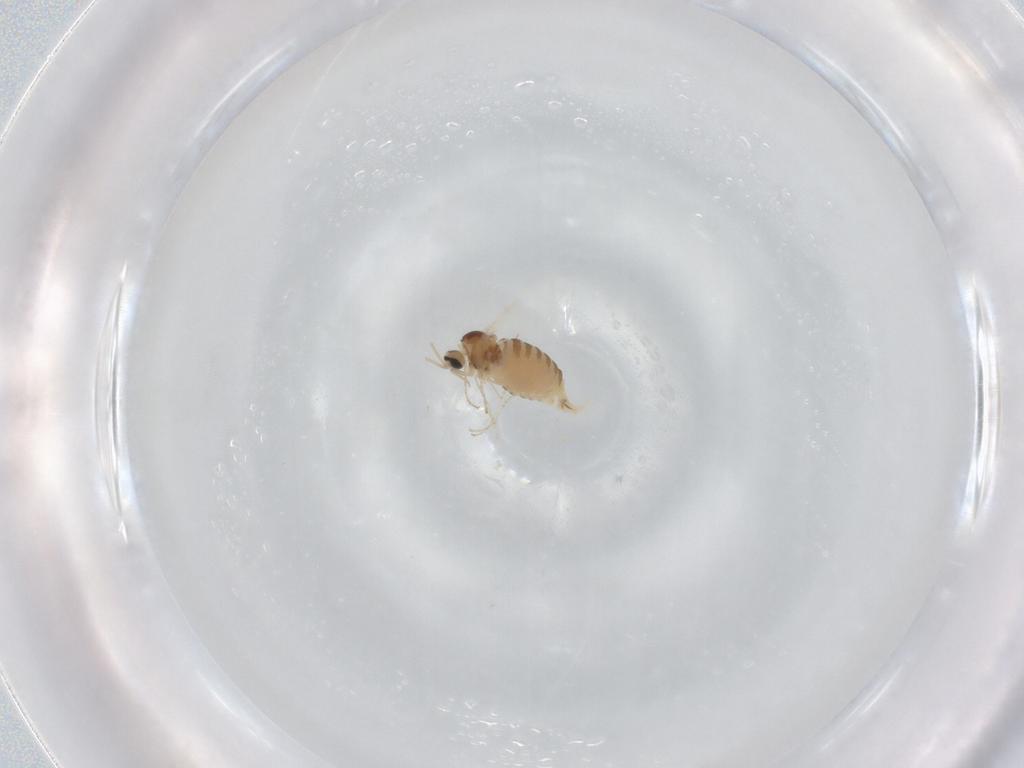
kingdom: Animalia
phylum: Arthropoda
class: Insecta
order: Diptera
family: Cecidomyiidae
